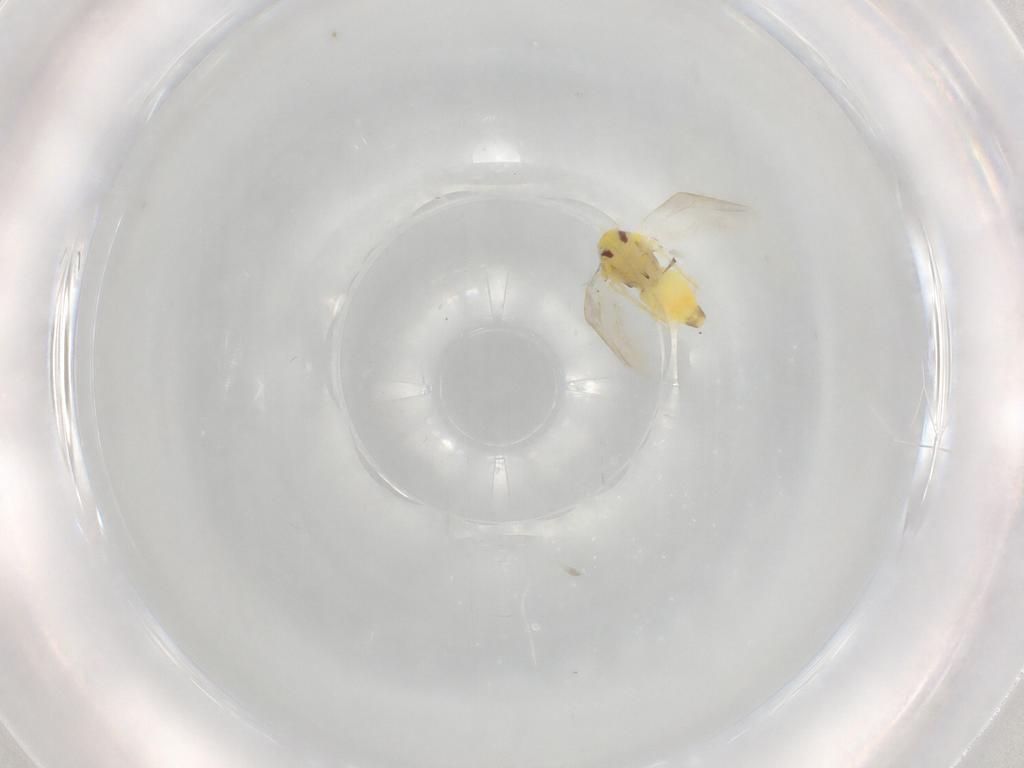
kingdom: Animalia
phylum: Arthropoda
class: Insecta
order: Hemiptera
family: Aleyrodidae
